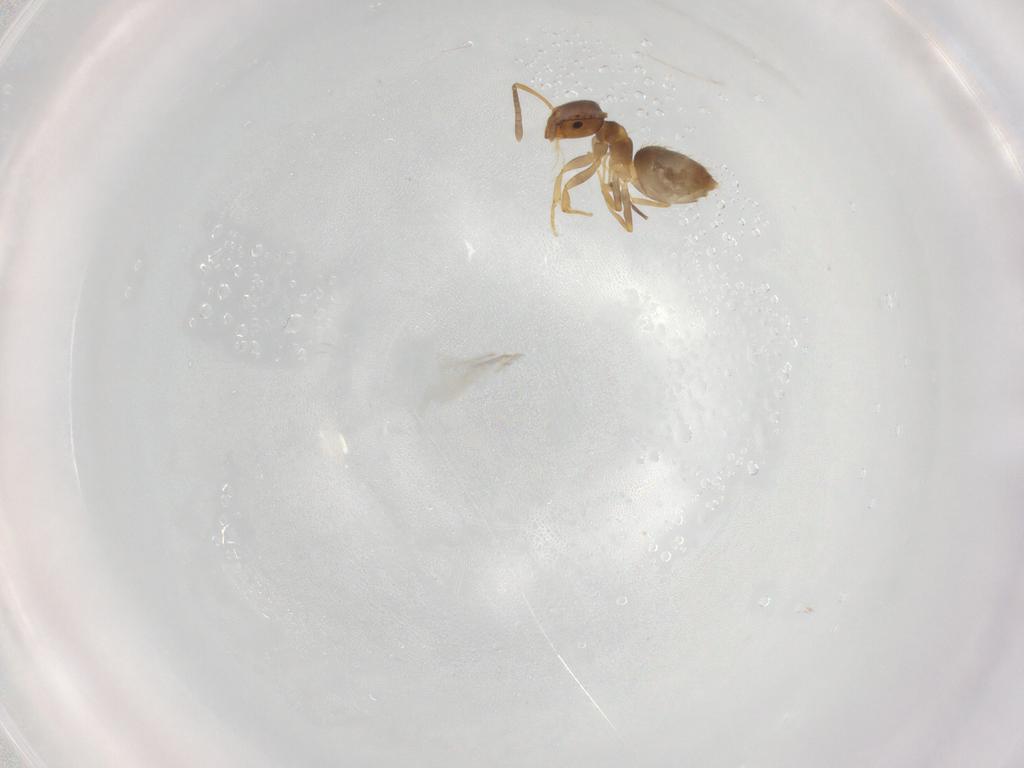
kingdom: Animalia
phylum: Arthropoda
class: Insecta
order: Hymenoptera
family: Formicidae
